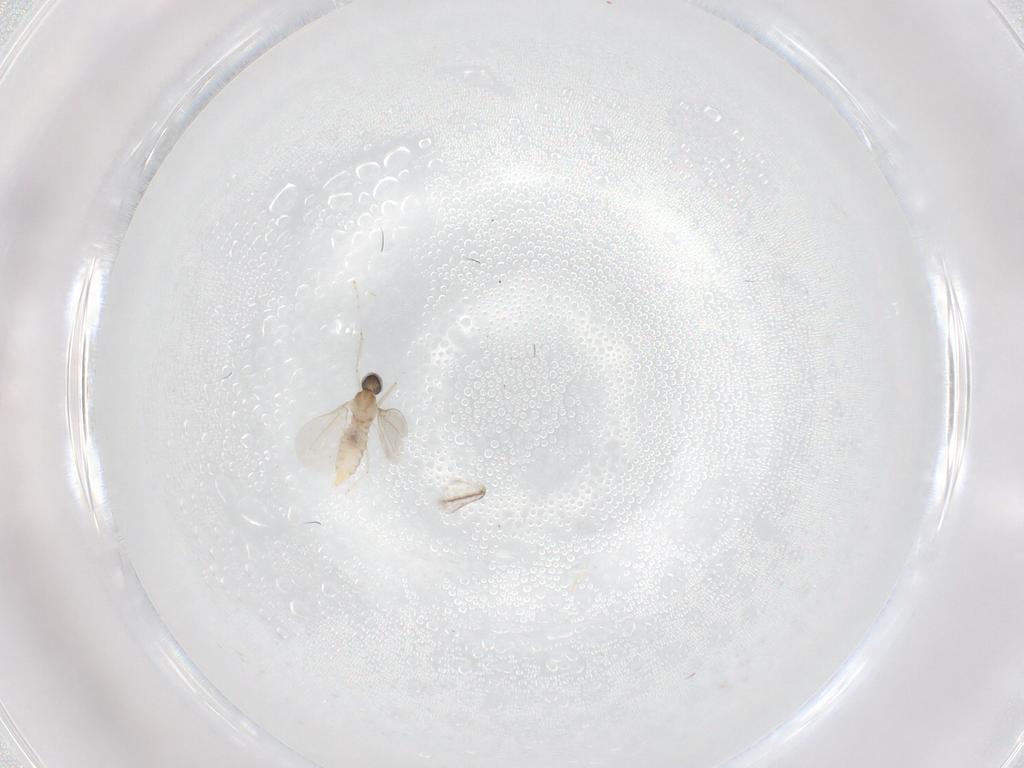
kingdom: Animalia
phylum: Arthropoda
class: Insecta
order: Diptera
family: Cecidomyiidae
